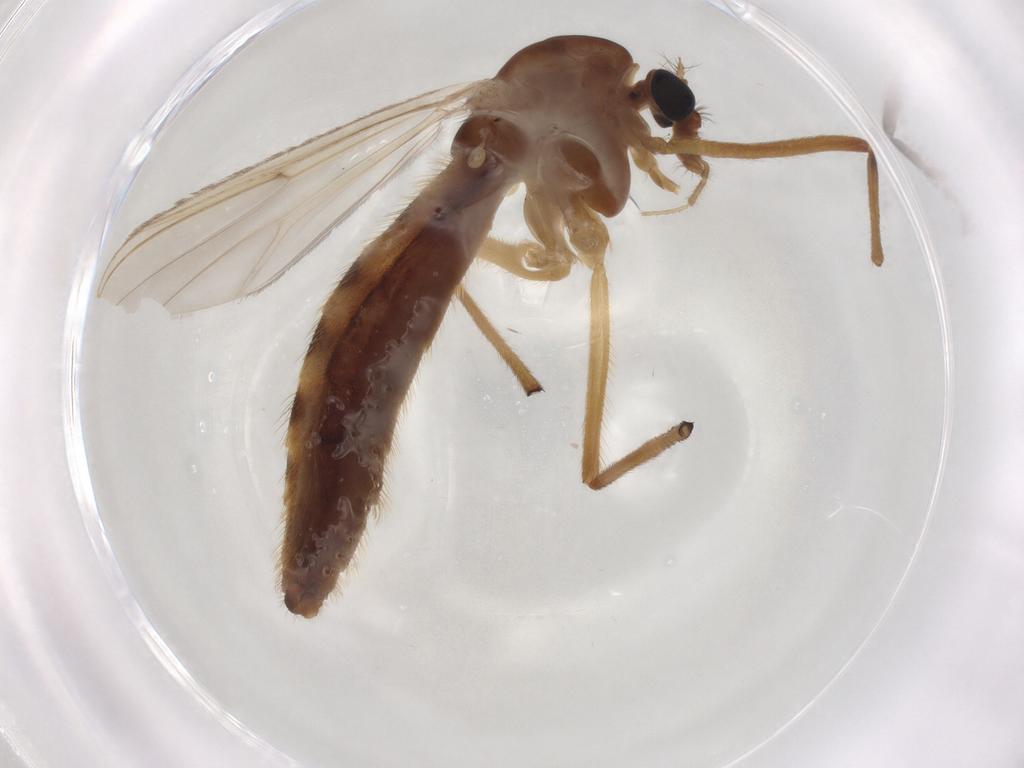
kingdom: Animalia
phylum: Arthropoda
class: Insecta
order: Diptera
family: Chironomidae
